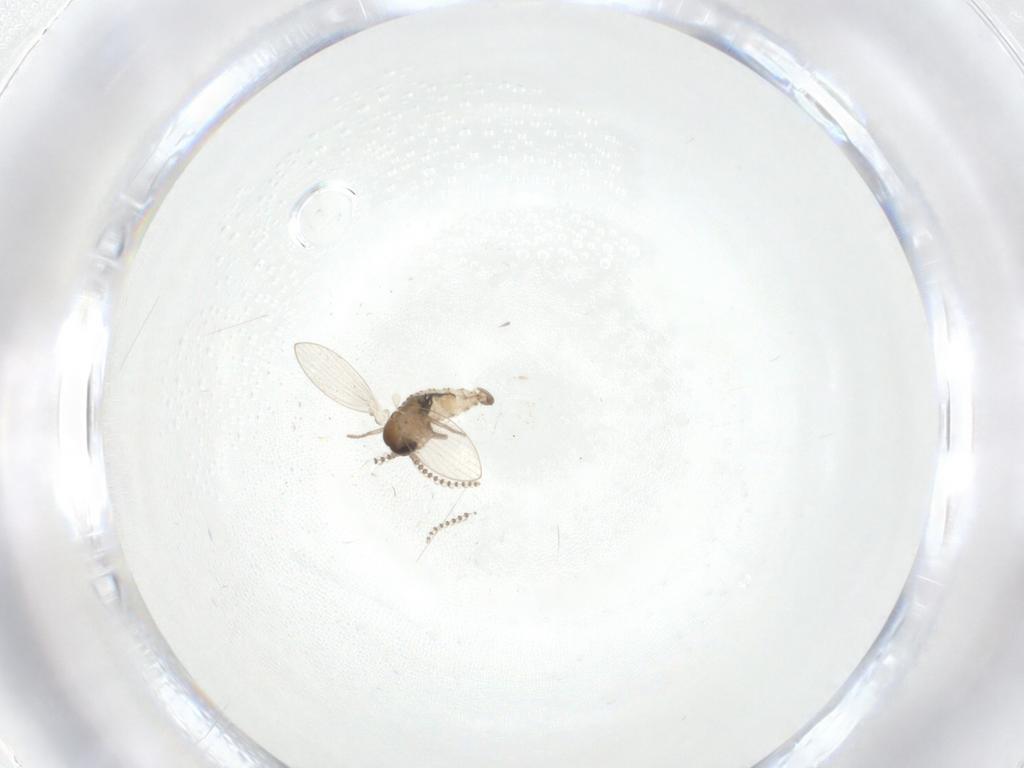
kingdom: Animalia
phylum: Arthropoda
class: Insecta
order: Diptera
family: Psychodidae
